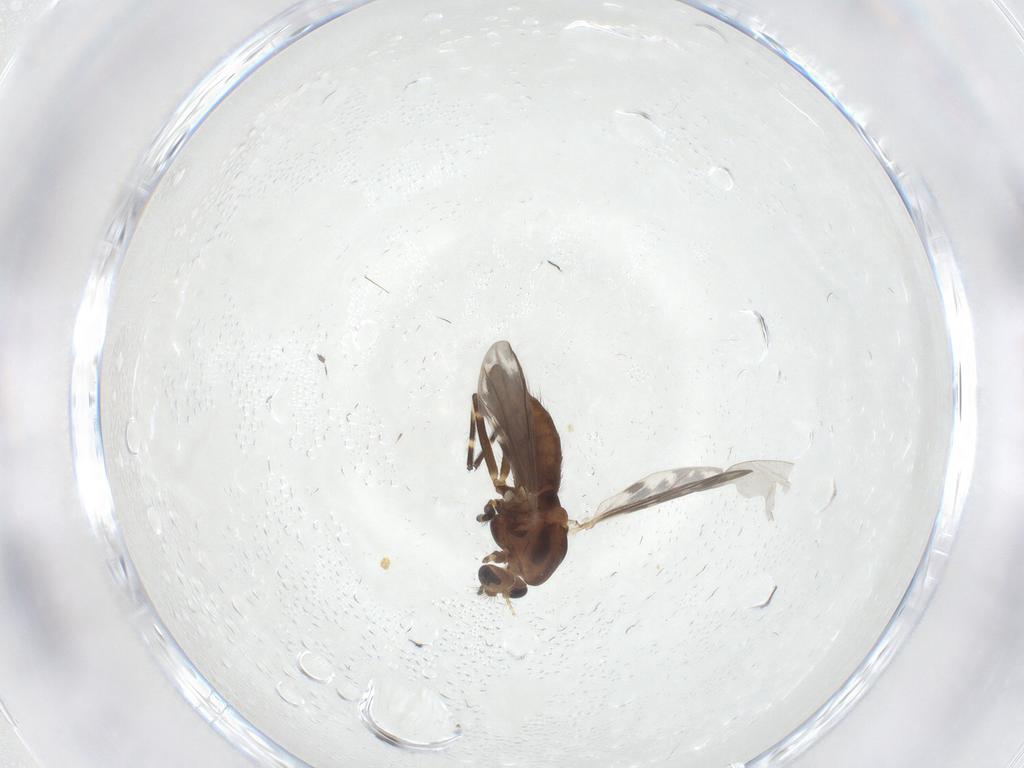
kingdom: Animalia
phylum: Arthropoda
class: Insecta
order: Diptera
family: Chironomidae
